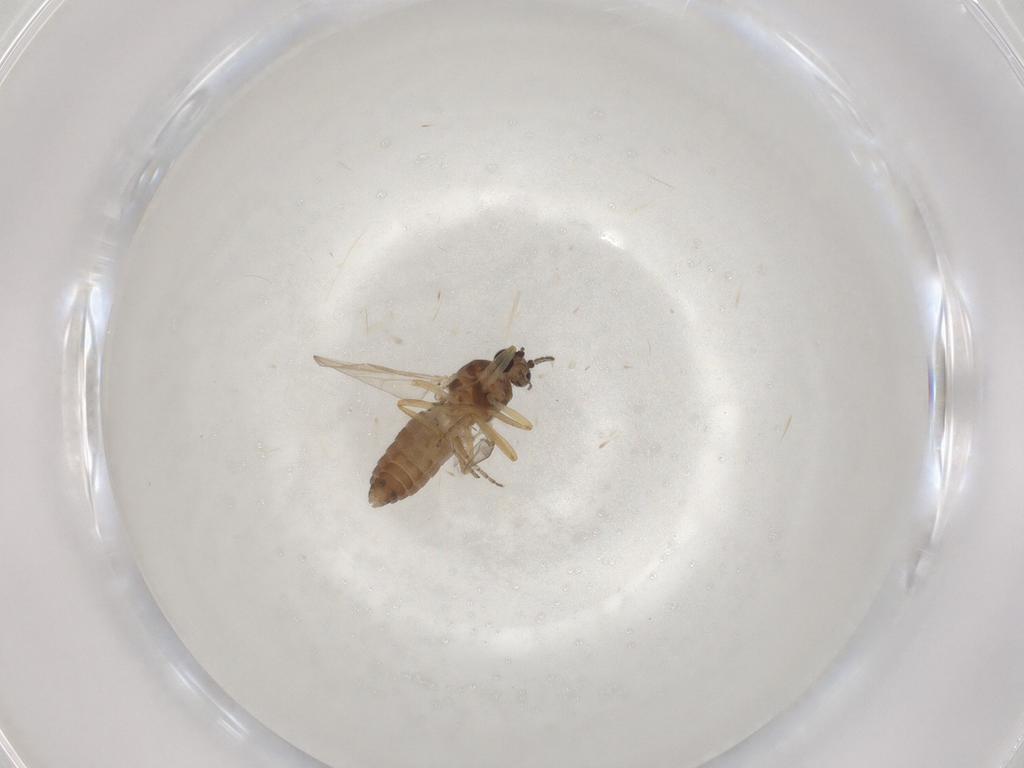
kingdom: Animalia
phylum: Arthropoda
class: Insecta
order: Diptera
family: Ceratopogonidae
